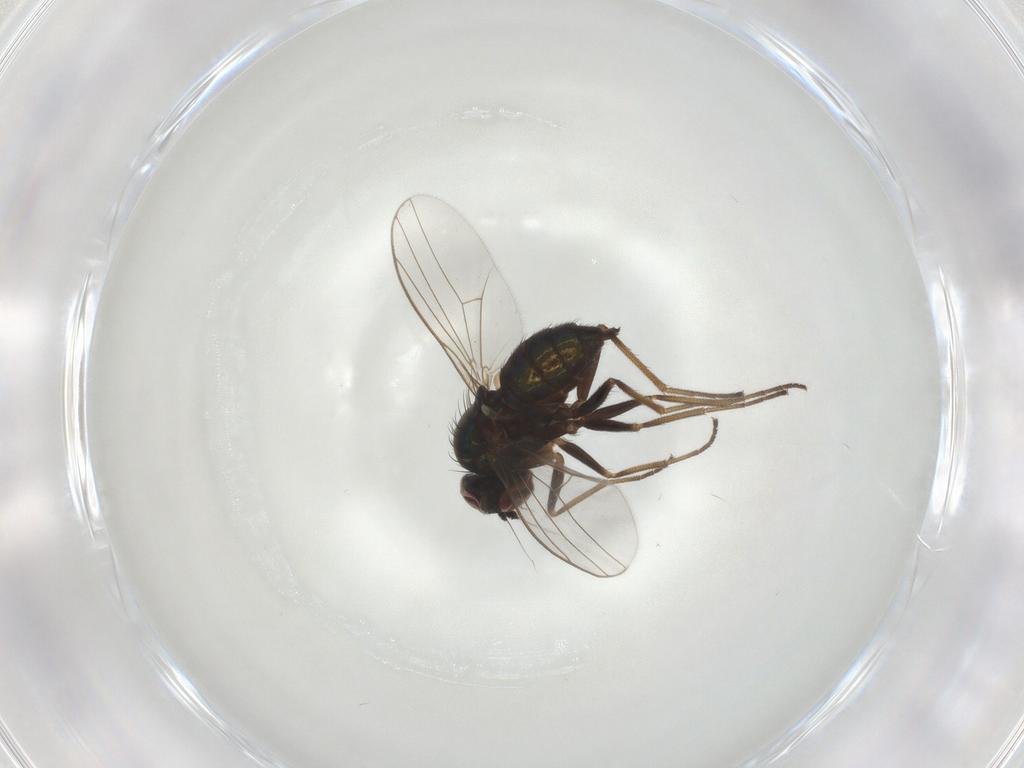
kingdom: Animalia
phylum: Arthropoda
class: Insecta
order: Diptera
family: Dolichopodidae
